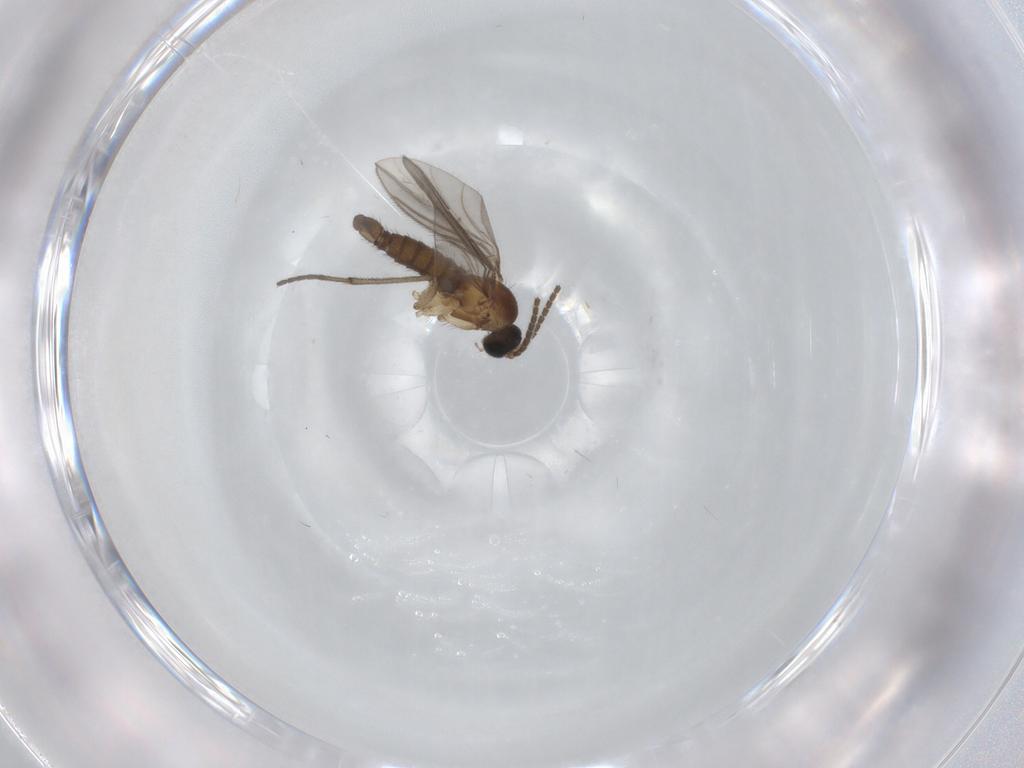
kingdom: Animalia
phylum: Arthropoda
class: Insecta
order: Diptera
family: Sciaridae
